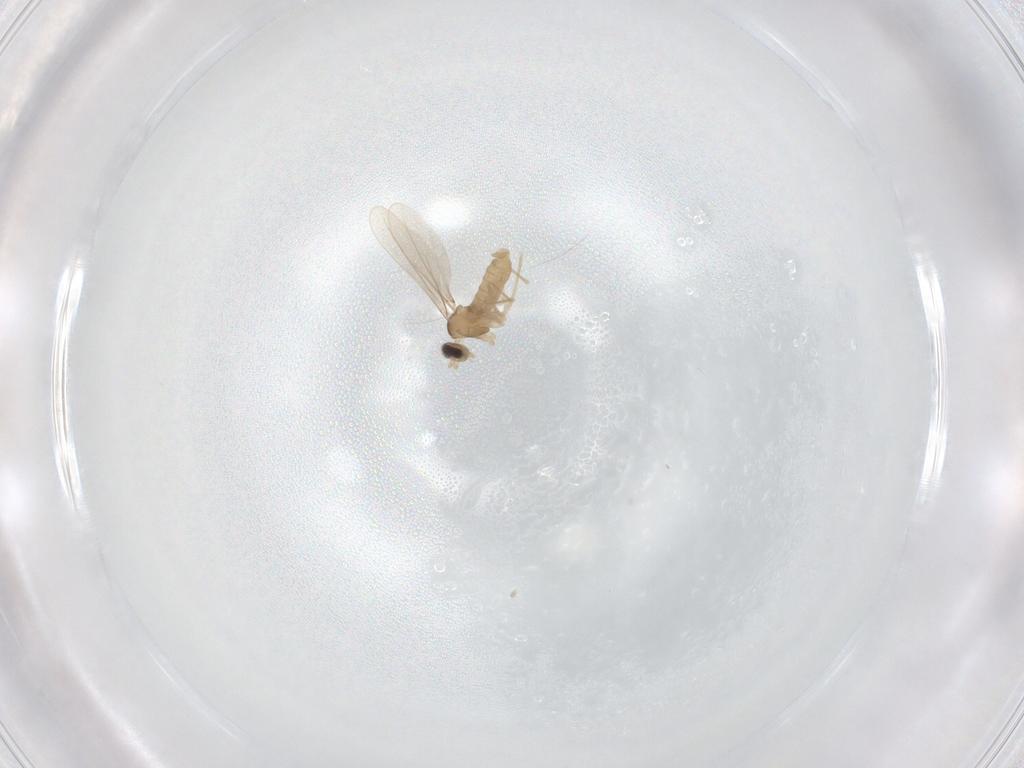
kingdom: Animalia
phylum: Arthropoda
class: Insecta
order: Diptera
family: Cecidomyiidae
